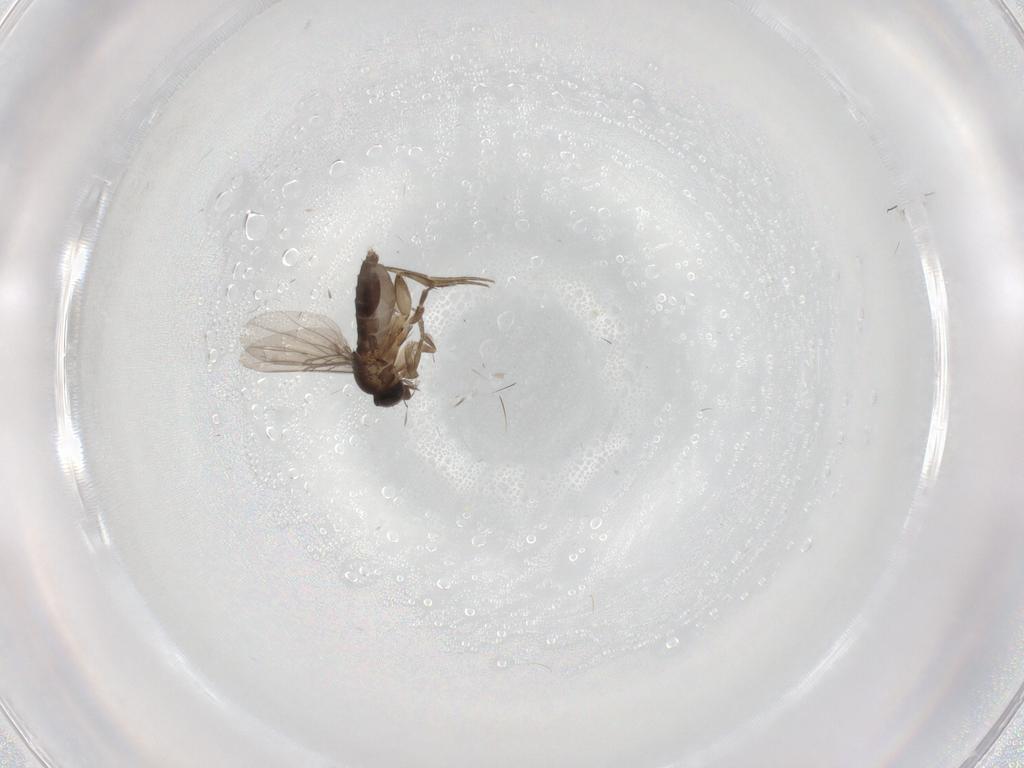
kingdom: Animalia
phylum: Arthropoda
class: Insecta
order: Diptera
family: Phoridae
